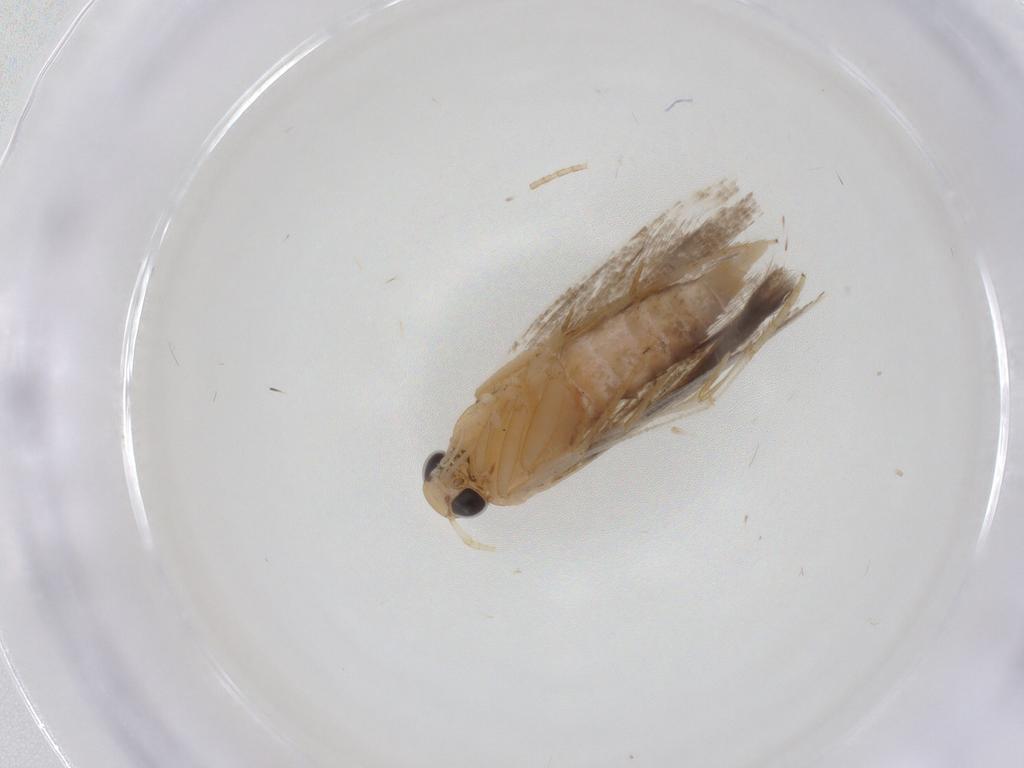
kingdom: Animalia
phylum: Arthropoda
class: Insecta
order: Lepidoptera
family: Gelechiidae
